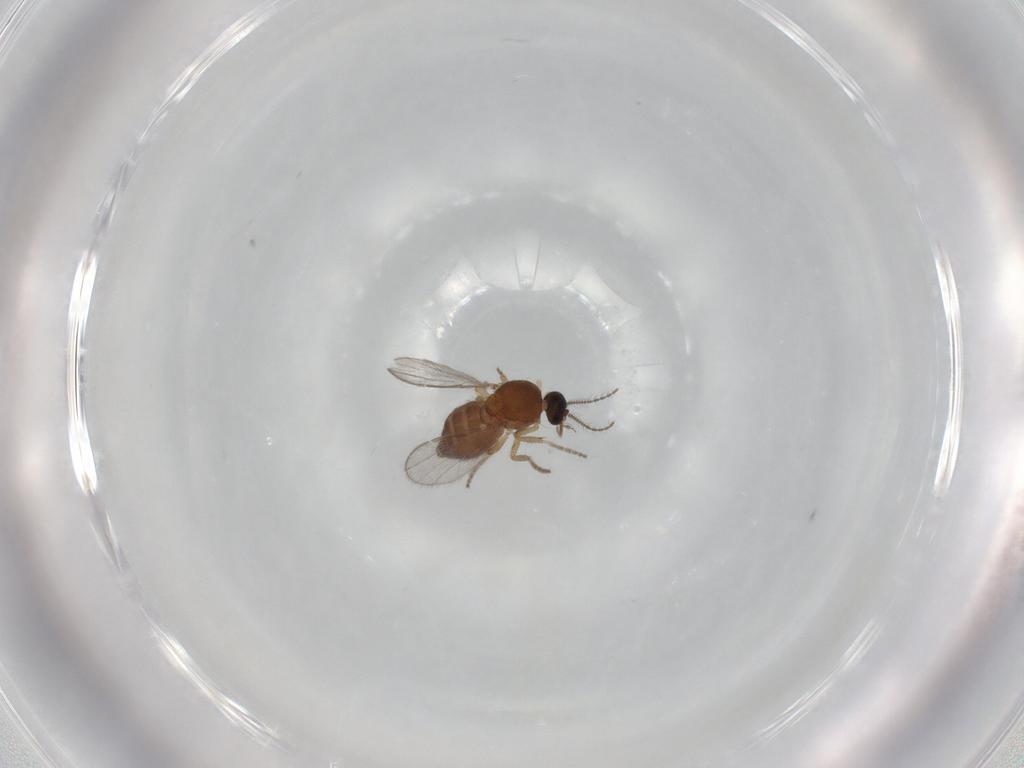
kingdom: Animalia
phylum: Arthropoda
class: Insecta
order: Diptera
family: Ceratopogonidae
